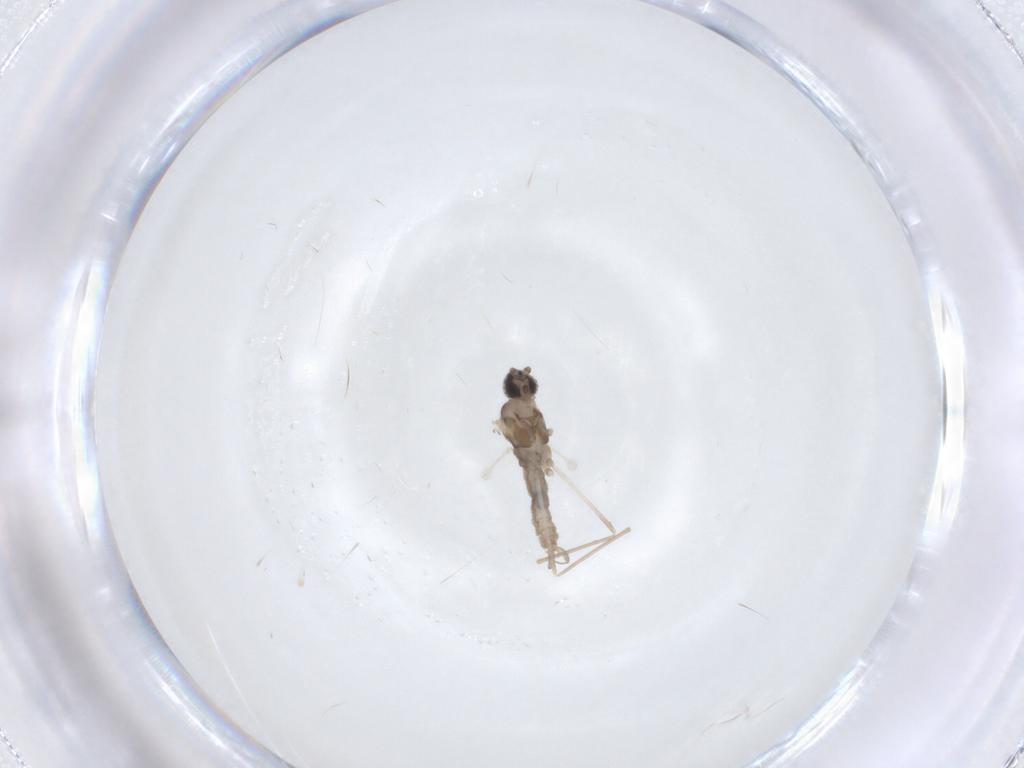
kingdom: Animalia
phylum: Arthropoda
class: Insecta
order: Diptera
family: Cecidomyiidae
